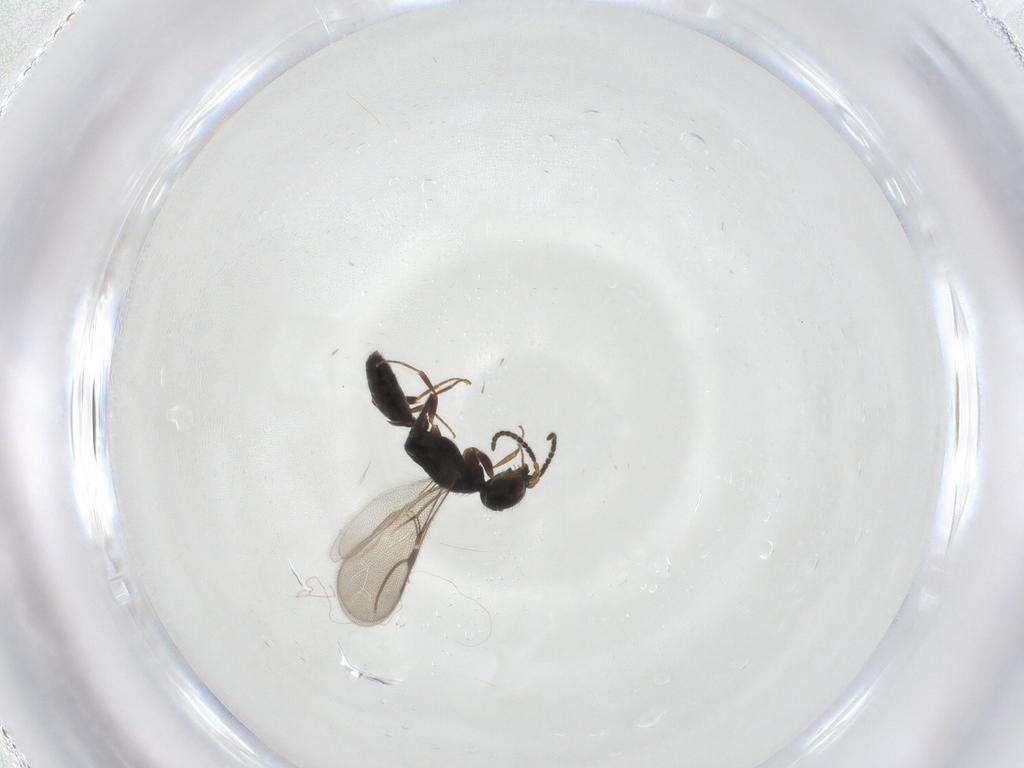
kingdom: Animalia
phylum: Arthropoda
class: Insecta
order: Hymenoptera
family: Bethylidae
